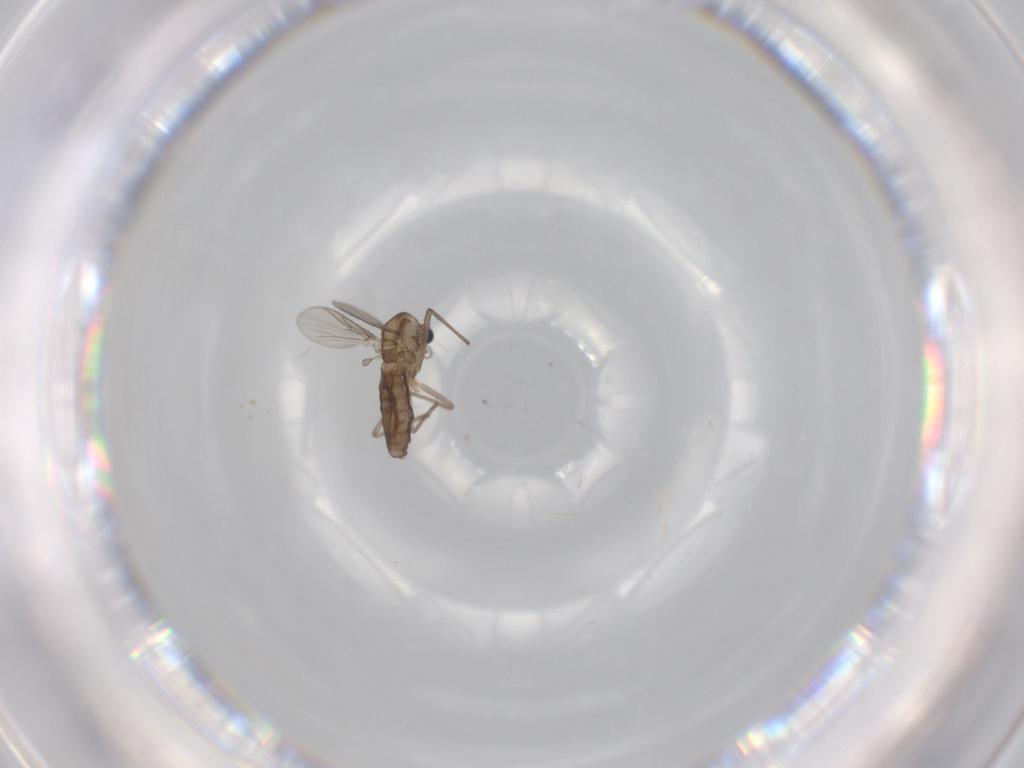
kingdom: Animalia
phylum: Arthropoda
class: Insecta
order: Diptera
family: Chironomidae
